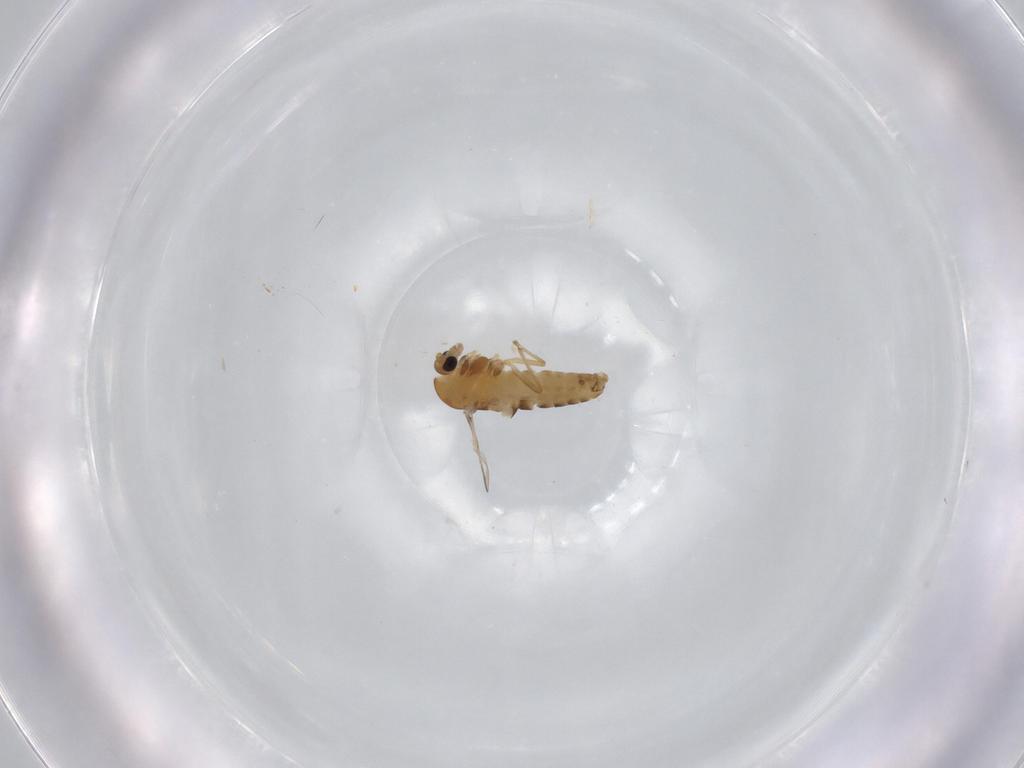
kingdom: Animalia
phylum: Arthropoda
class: Insecta
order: Diptera
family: Chironomidae
